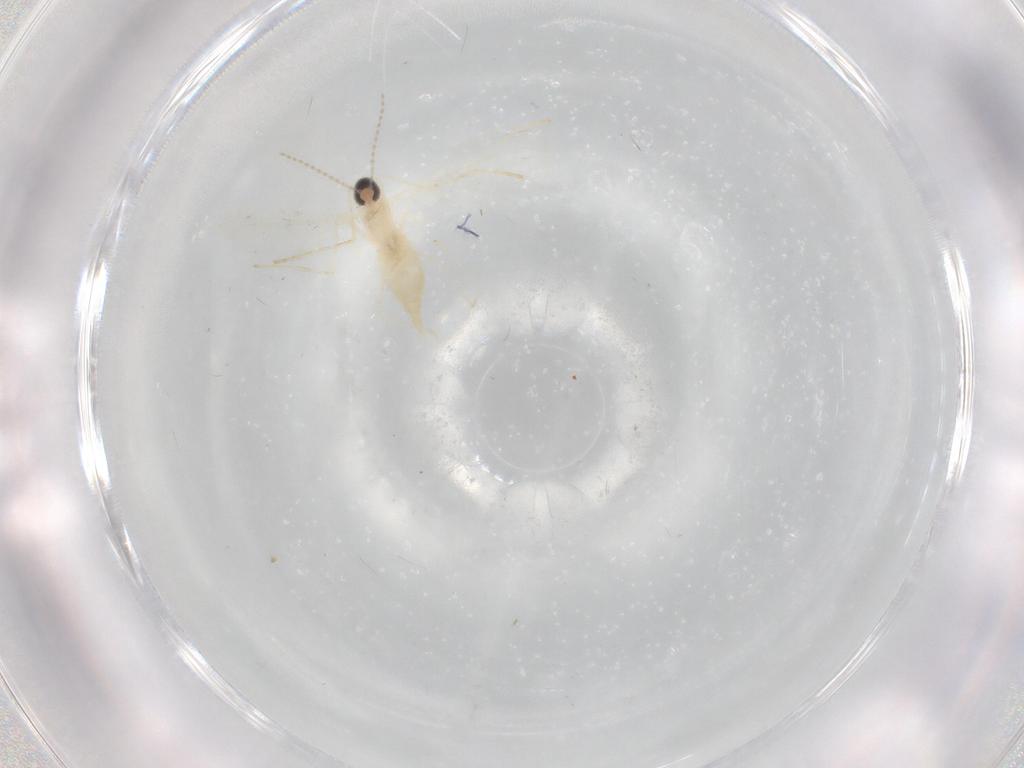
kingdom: Animalia
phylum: Arthropoda
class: Insecta
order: Diptera
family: Cecidomyiidae
